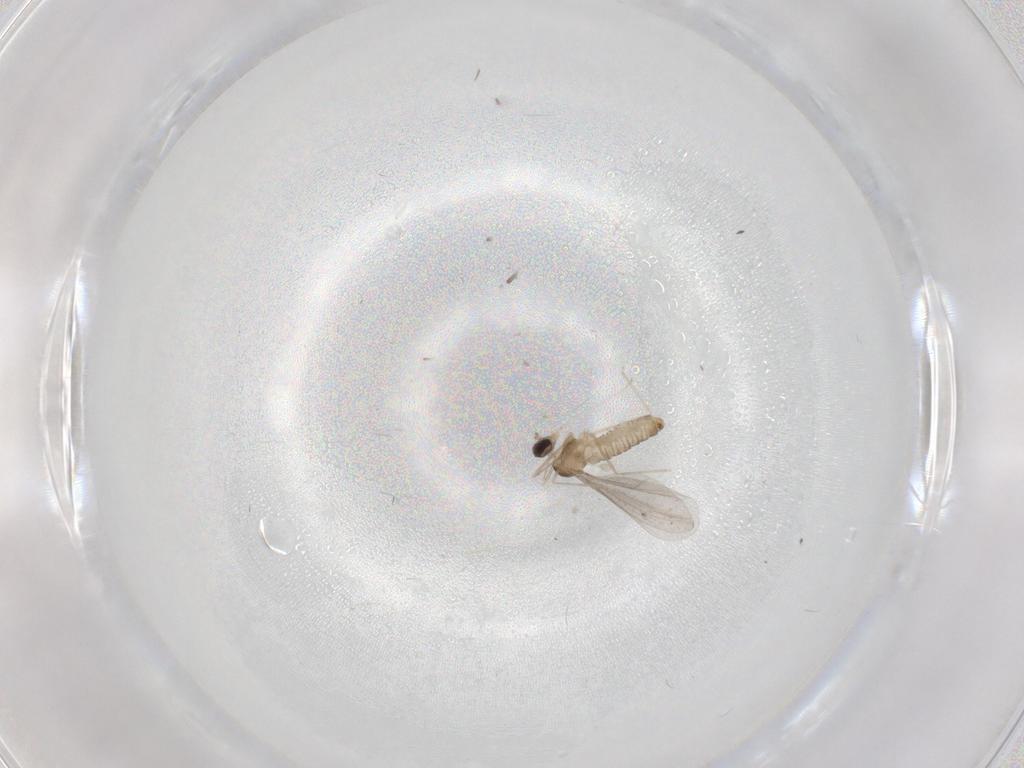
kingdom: Animalia
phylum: Arthropoda
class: Insecta
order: Diptera
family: Cecidomyiidae
